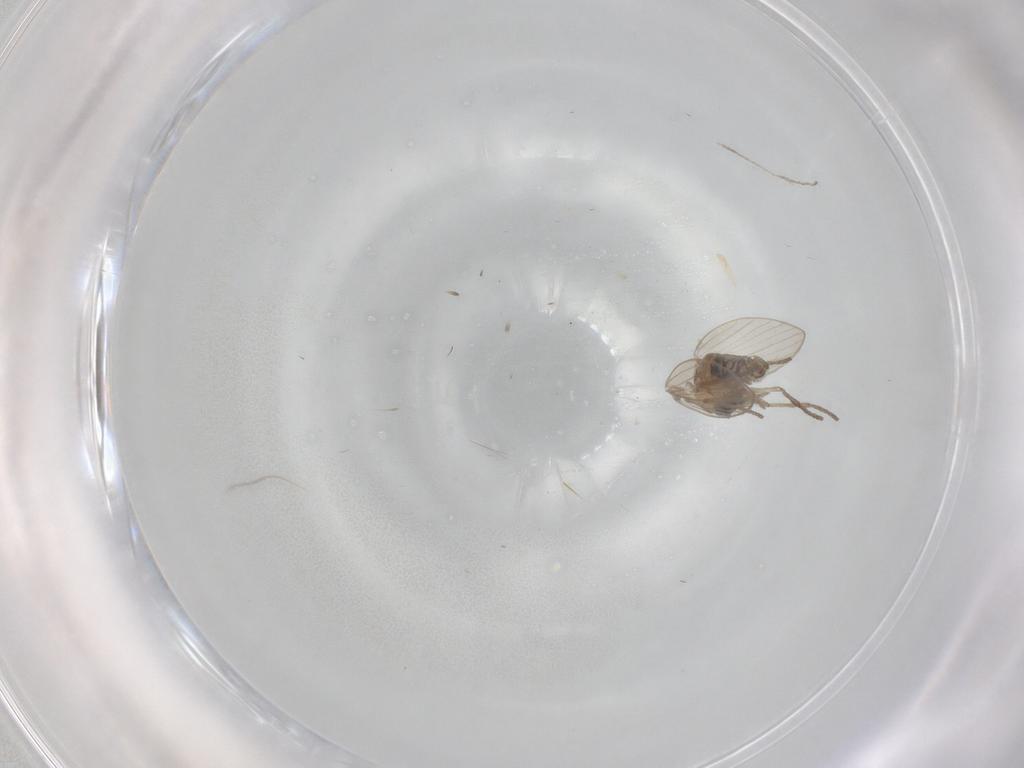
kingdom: Animalia
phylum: Arthropoda
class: Insecta
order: Diptera
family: Psychodidae
